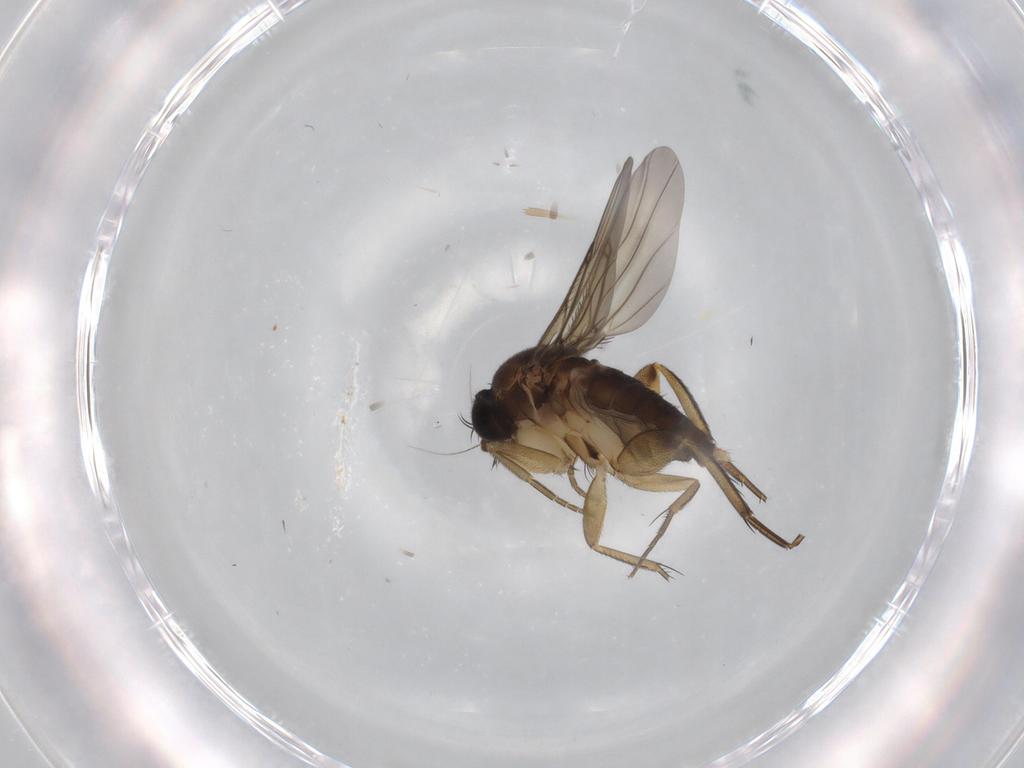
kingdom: Animalia
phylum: Arthropoda
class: Insecta
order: Diptera
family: Phoridae
